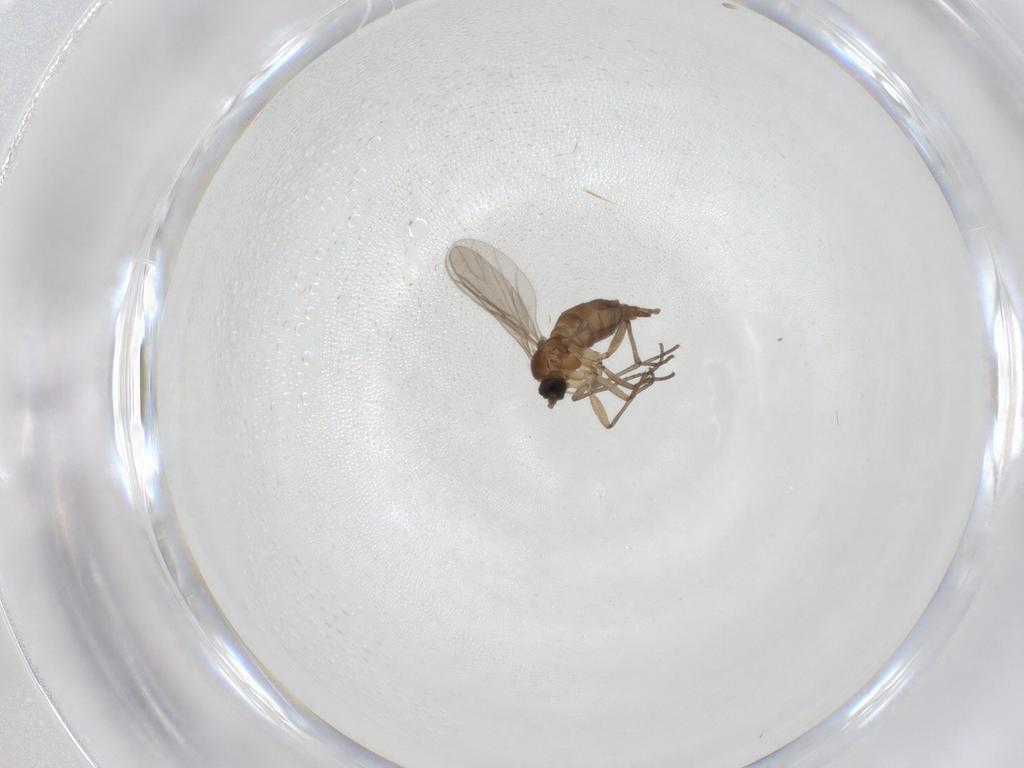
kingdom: Animalia
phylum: Arthropoda
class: Insecta
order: Diptera
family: Sciaridae
